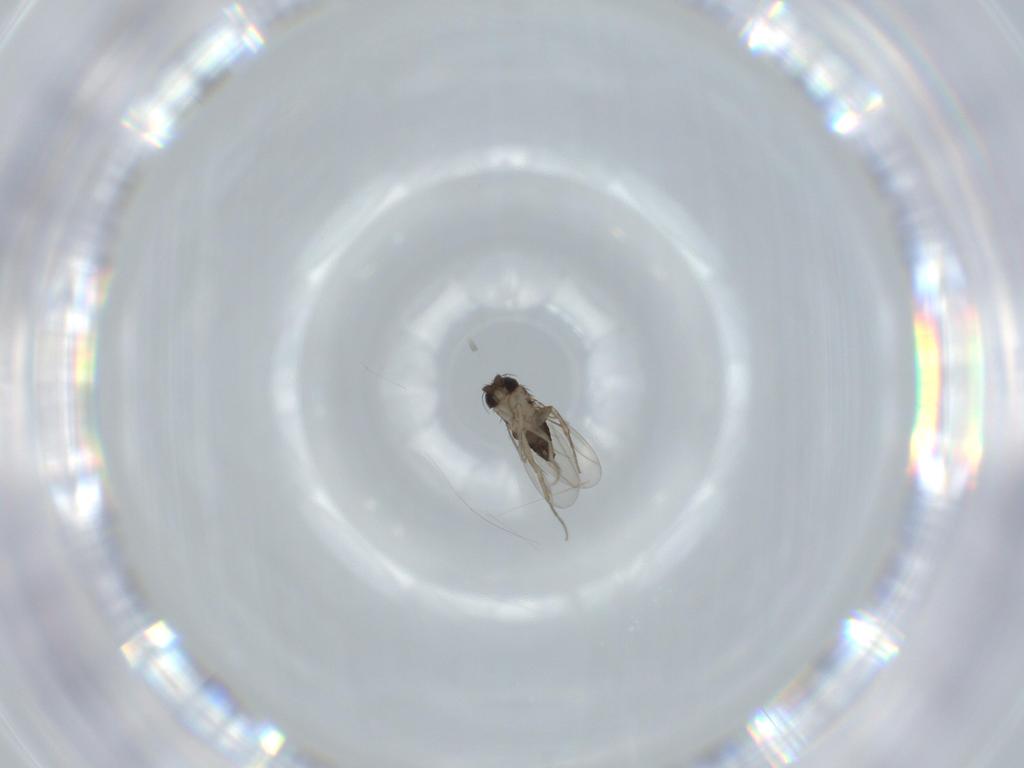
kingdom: Animalia
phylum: Arthropoda
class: Insecta
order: Diptera
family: Phoridae
